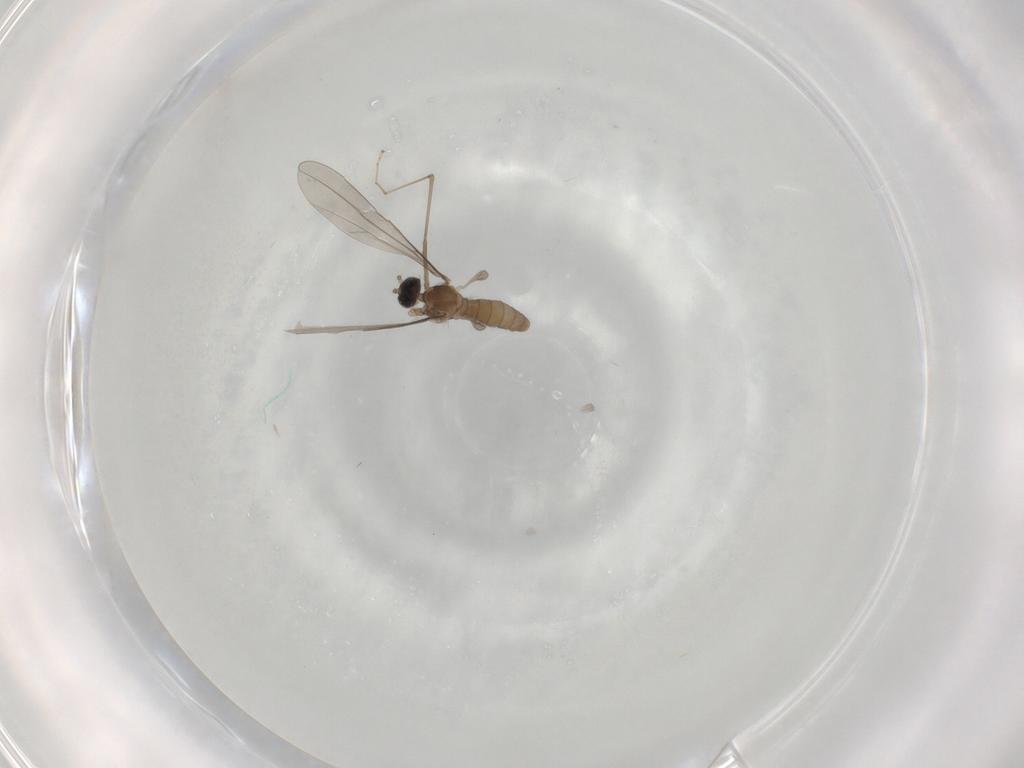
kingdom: Animalia
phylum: Arthropoda
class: Insecta
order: Diptera
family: Cecidomyiidae
